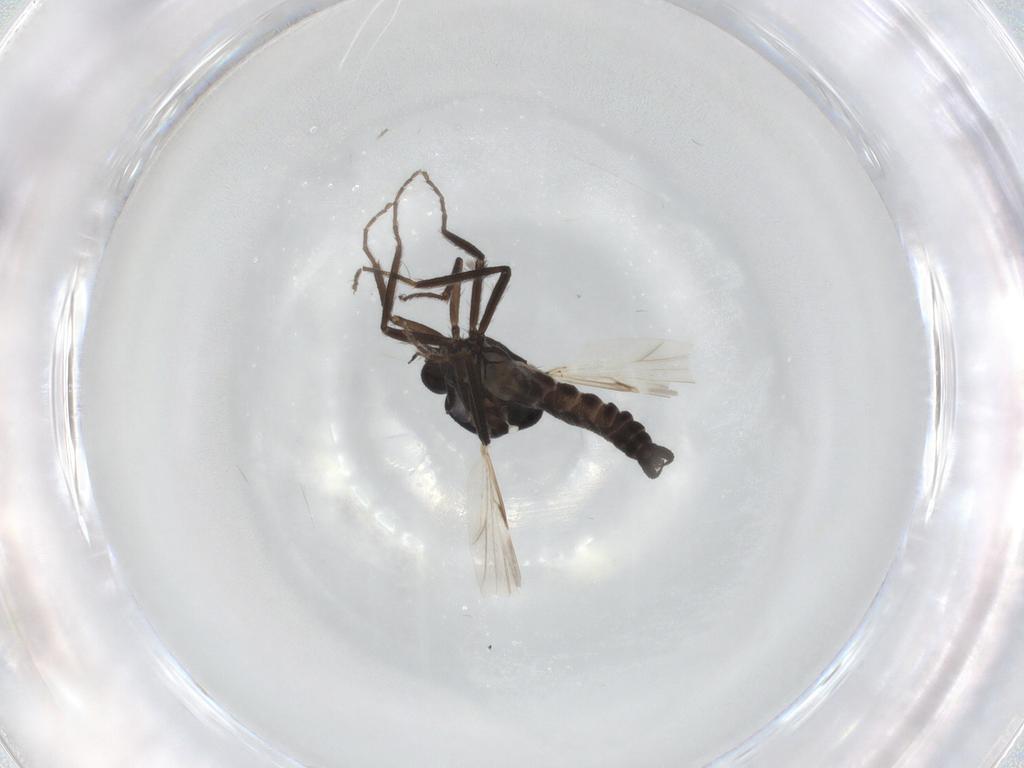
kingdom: Animalia
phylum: Arthropoda
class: Insecta
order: Diptera
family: Ceratopogonidae
